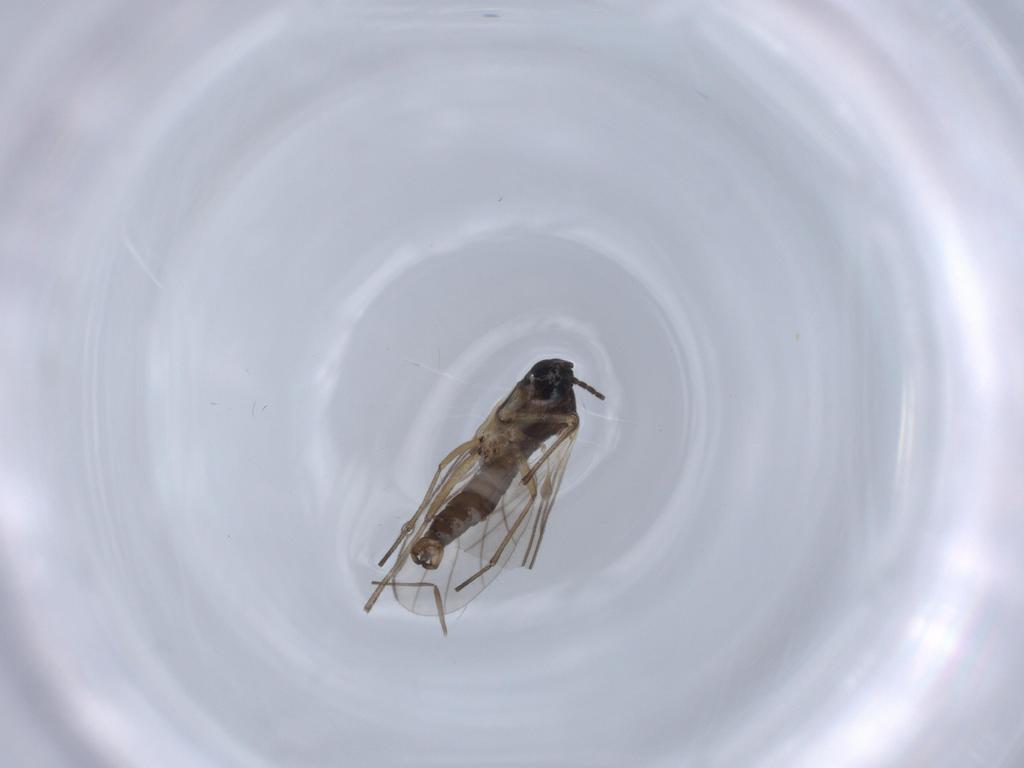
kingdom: Animalia
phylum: Arthropoda
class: Insecta
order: Diptera
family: Sciaridae
